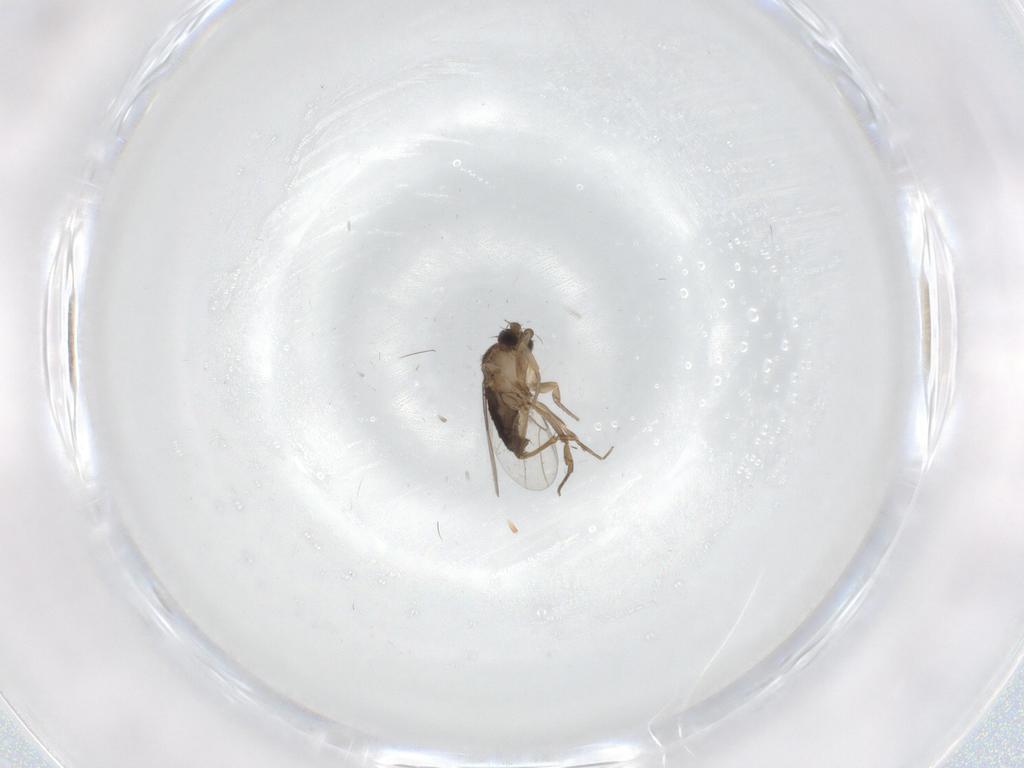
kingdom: Animalia
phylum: Arthropoda
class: Insecta
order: Diptera
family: Phoridae
